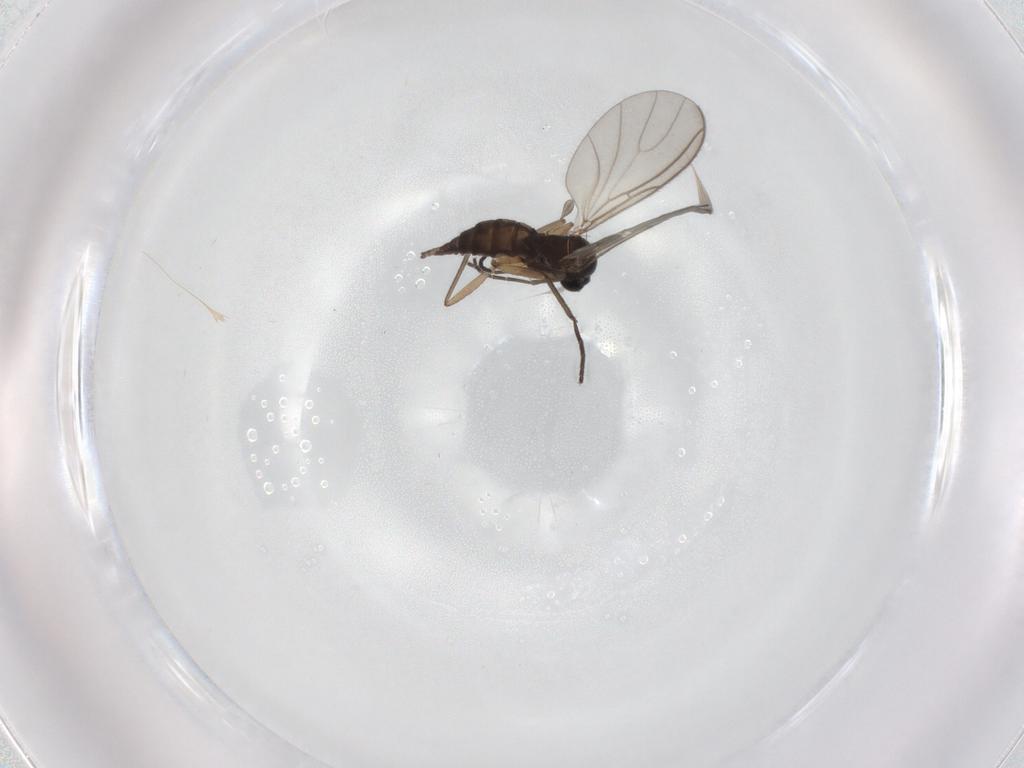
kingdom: Animalia
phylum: Arthropoda
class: Insecta
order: Diptera
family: Sciaridae
